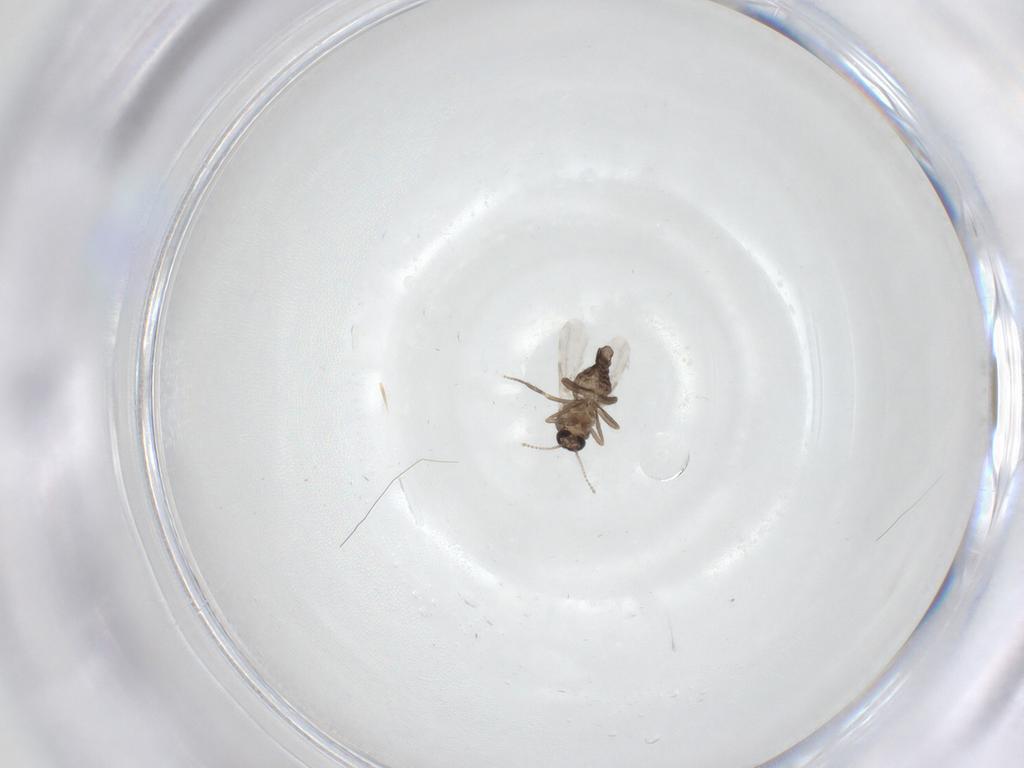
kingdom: Animalia
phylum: Arthropoda
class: Insecta
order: Diptera
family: Ceratopogonidae
